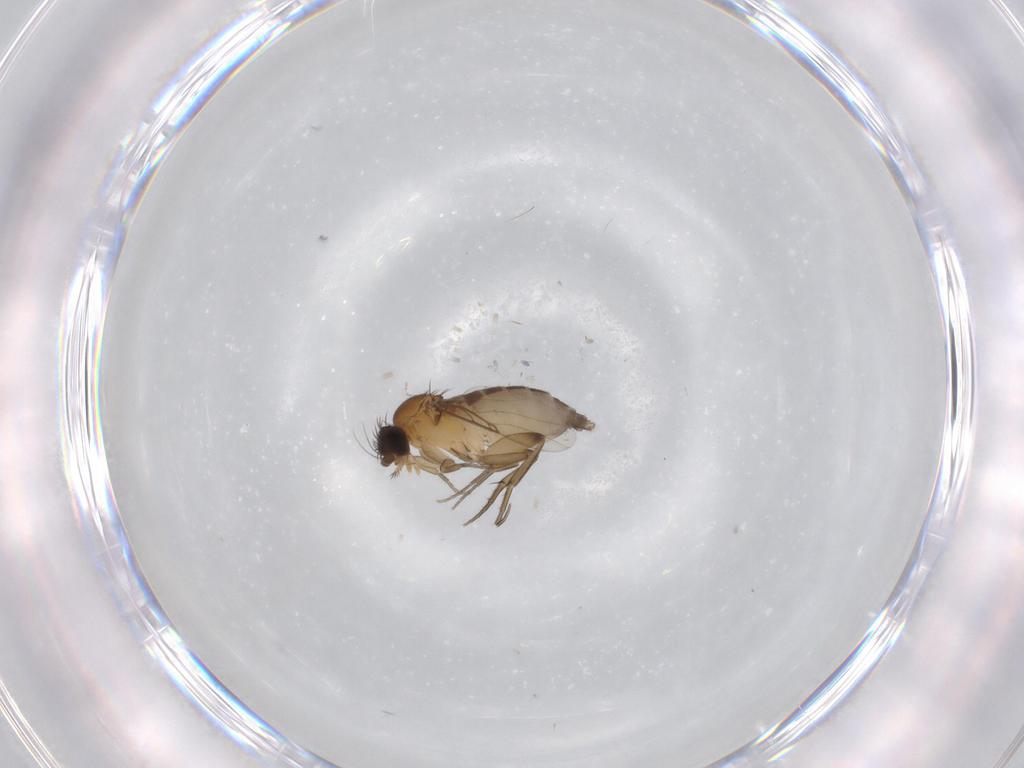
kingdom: Animalia
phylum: Arthropoda
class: Insecta
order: Diptera
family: Phoridae
